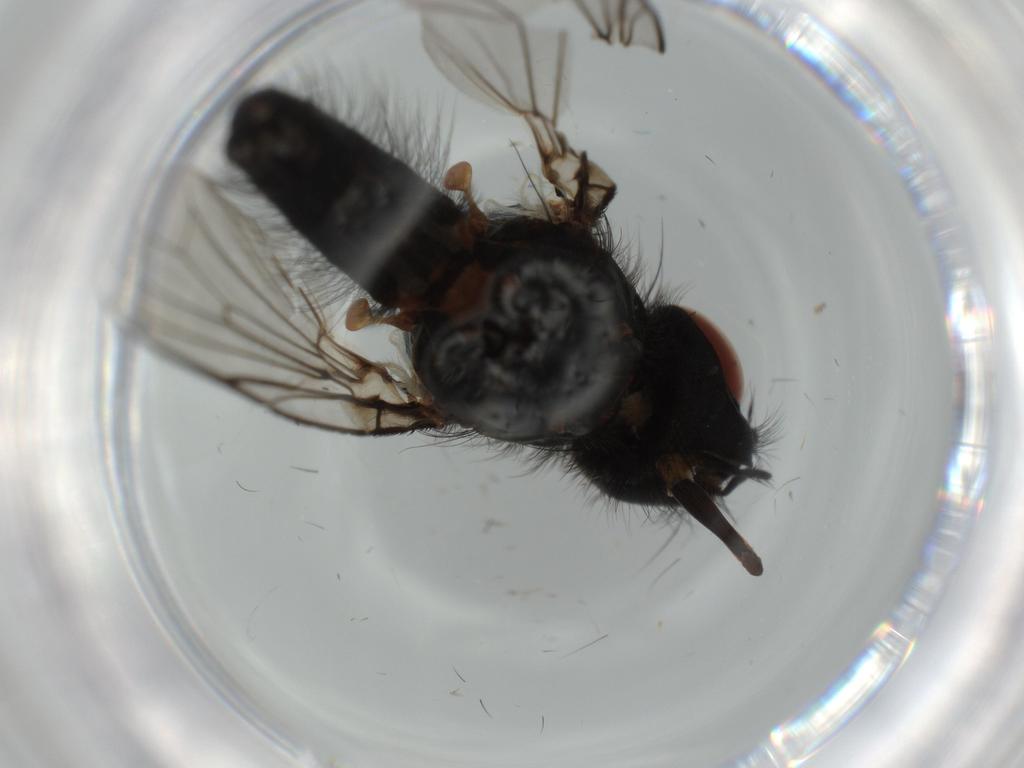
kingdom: Animalia
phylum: Arthropoda
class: Insecta
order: Diptera
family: Anthomyiidae
